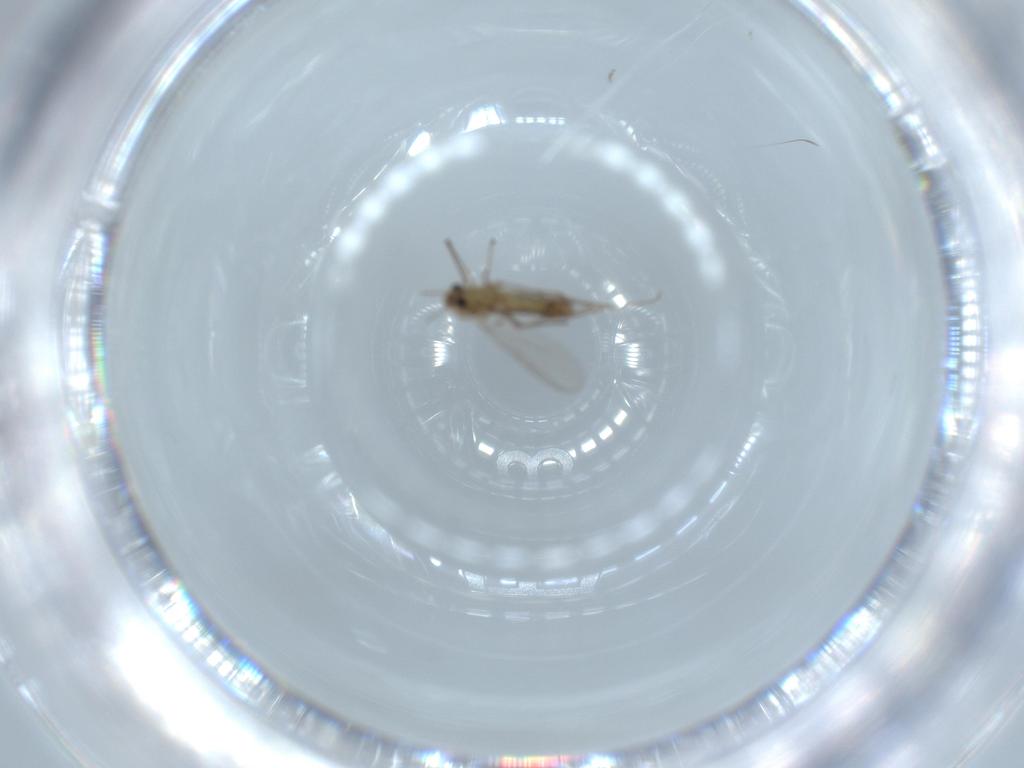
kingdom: Animalia
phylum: Arthropoda
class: Insecta
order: Diptera
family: Chironomidae
